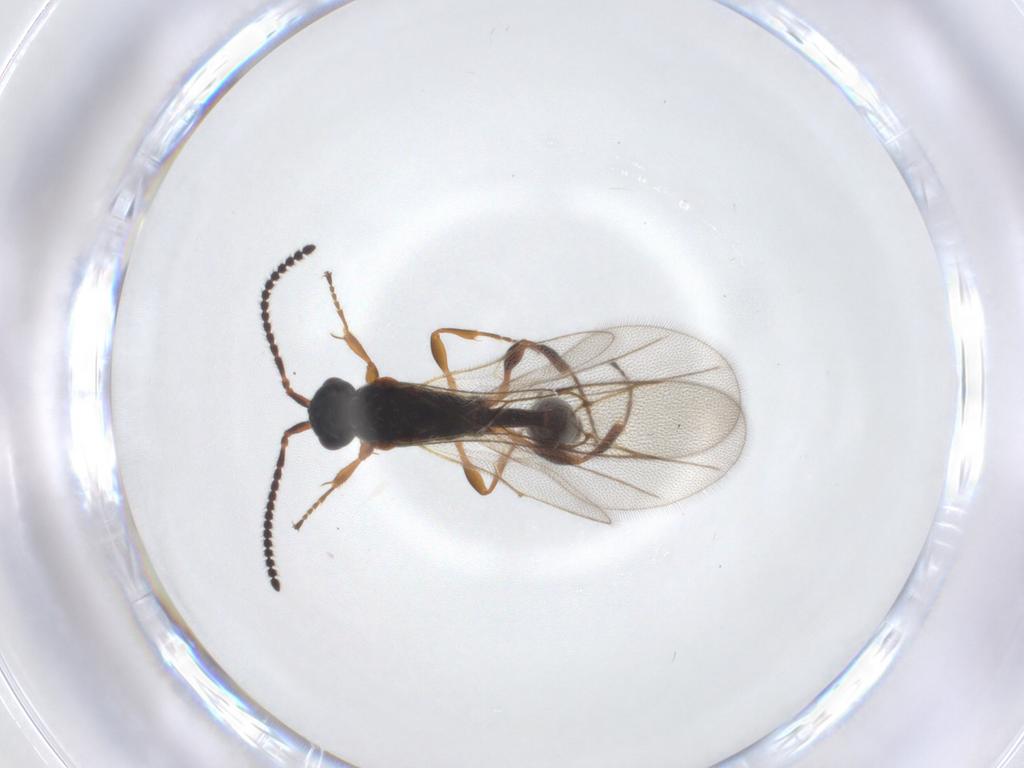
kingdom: Animalia
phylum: Arthropoda
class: Insecta
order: Hymenoptera
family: Diapriidae
